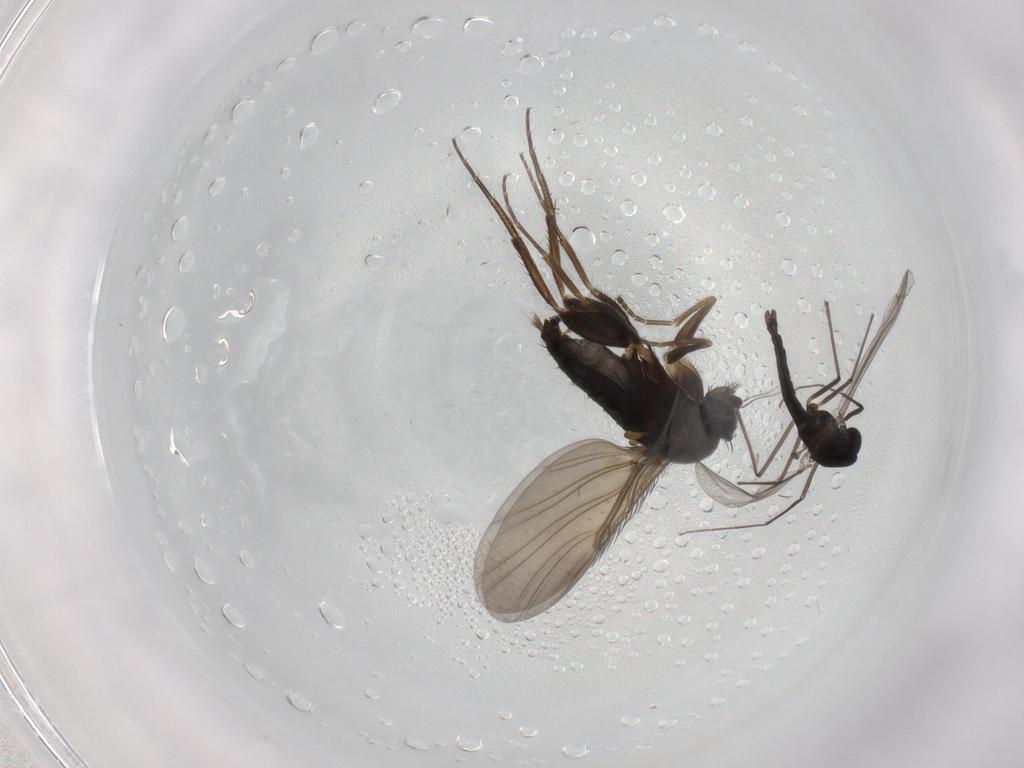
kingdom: Animalia
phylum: Arthropoda
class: Insecta
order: Diptera
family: Phoridae
